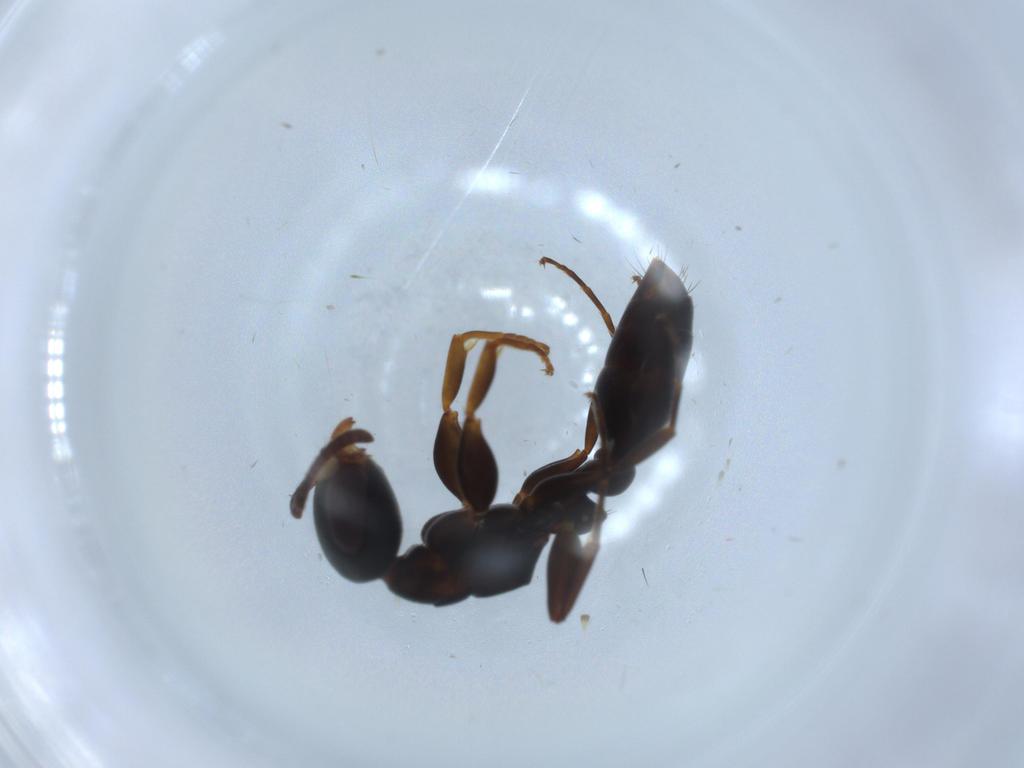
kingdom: Animalia
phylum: Arthropoda
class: Insecta
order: Hymenoptera
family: Formicidae
